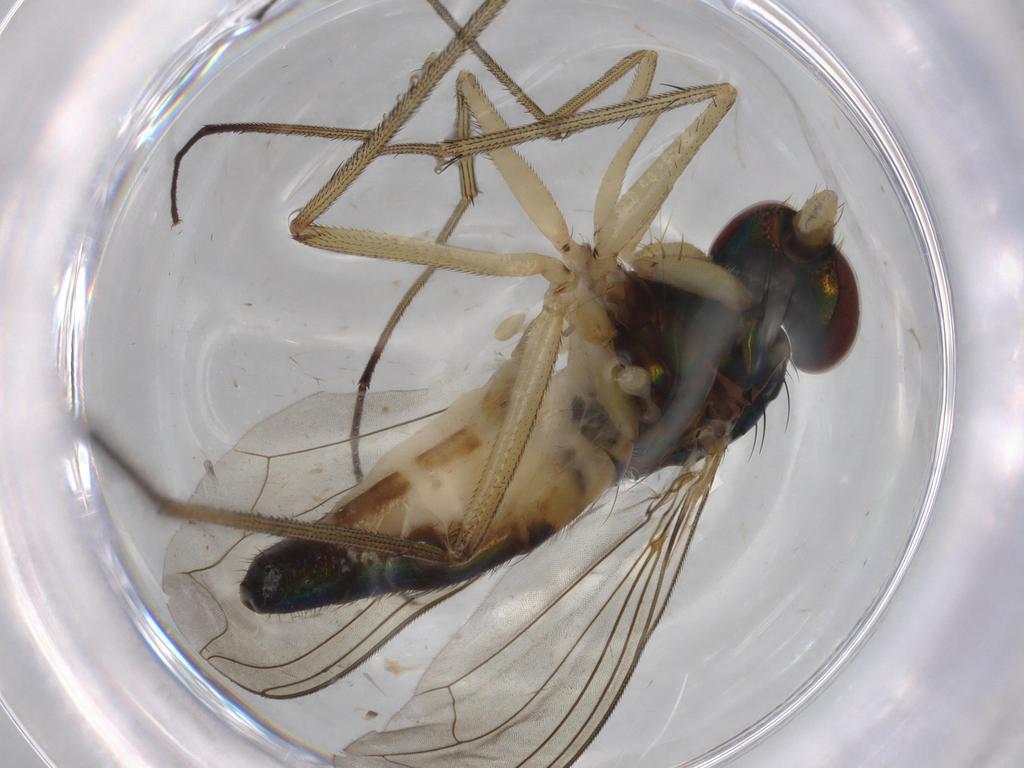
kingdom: Animalia
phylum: Arthropoda
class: Insecta
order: Diptera
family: Dolichopodidae
